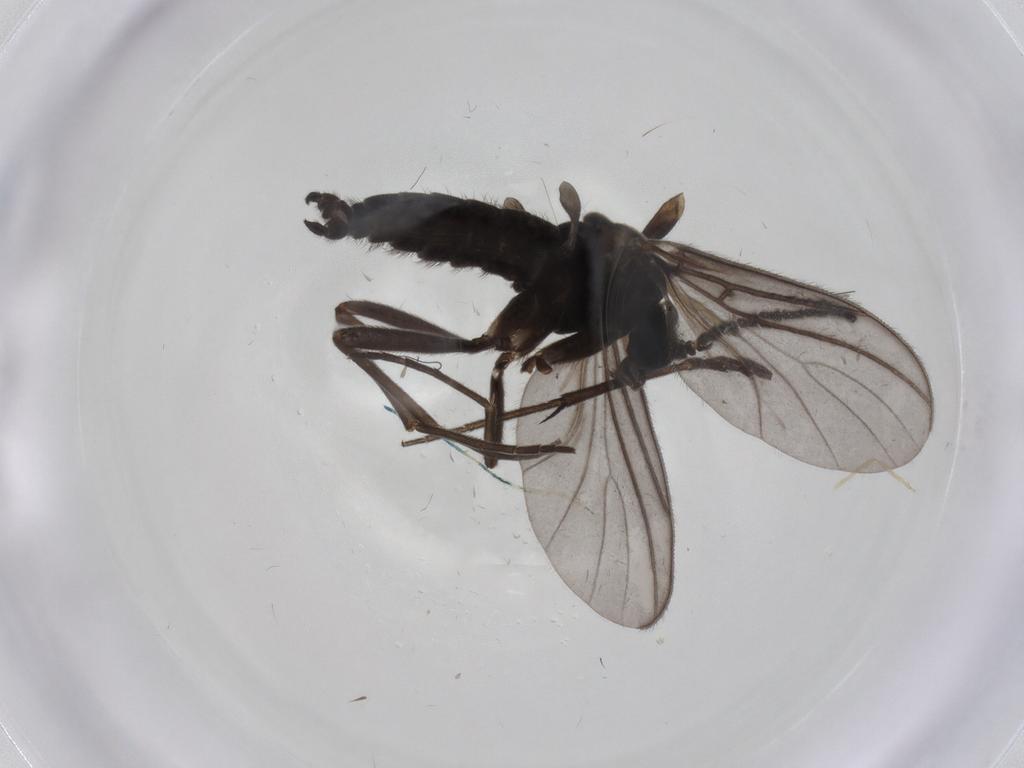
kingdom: Animalia
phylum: Arthropoda
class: Insecta
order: Diptera
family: Sciaridae
